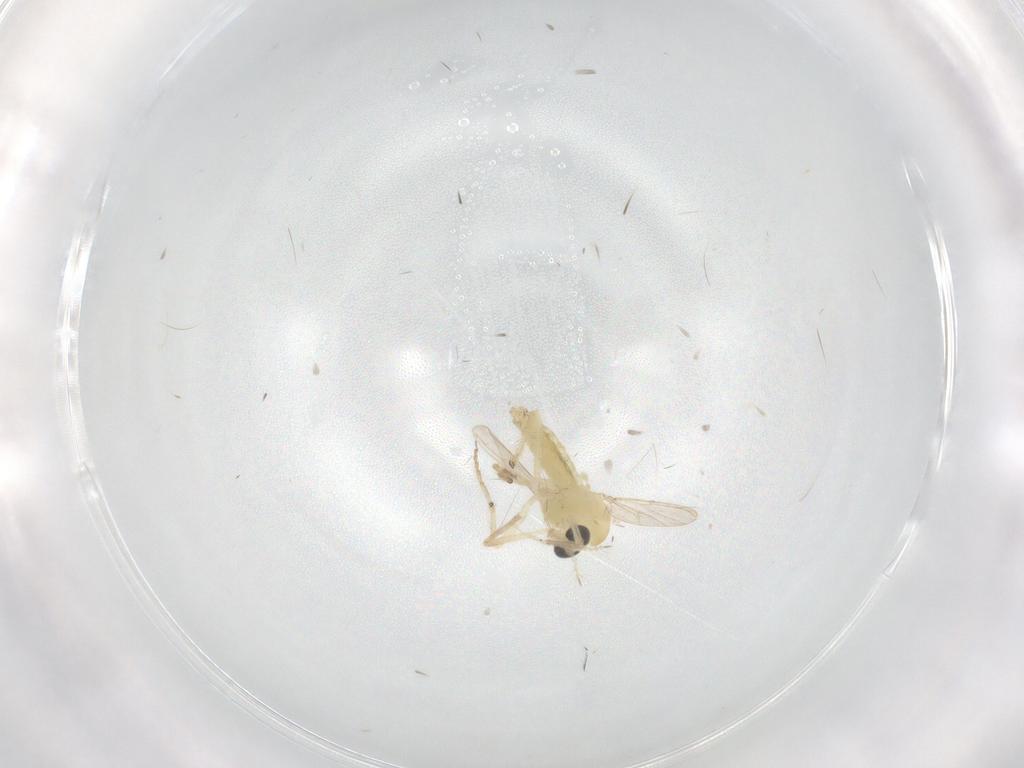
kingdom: Animalia
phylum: Arthropoda
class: Insecta
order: Diptera
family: Chironomidae
